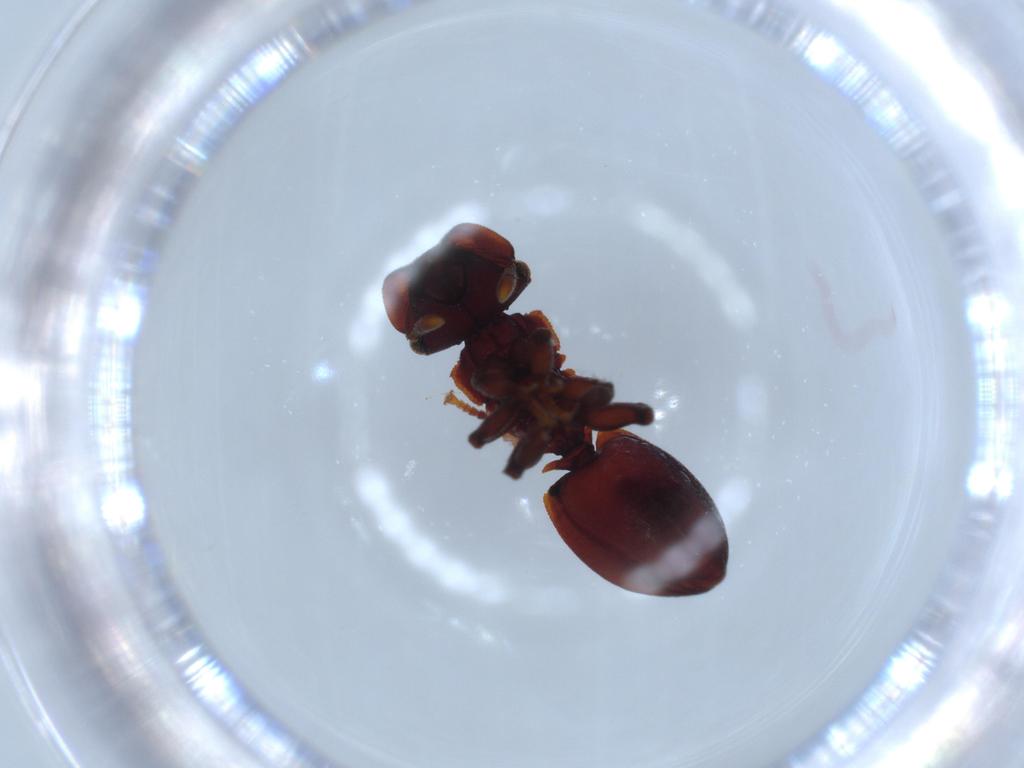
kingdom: Animalia
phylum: Arthropoda
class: Insecta
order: Hymenoptera
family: Formicidae
